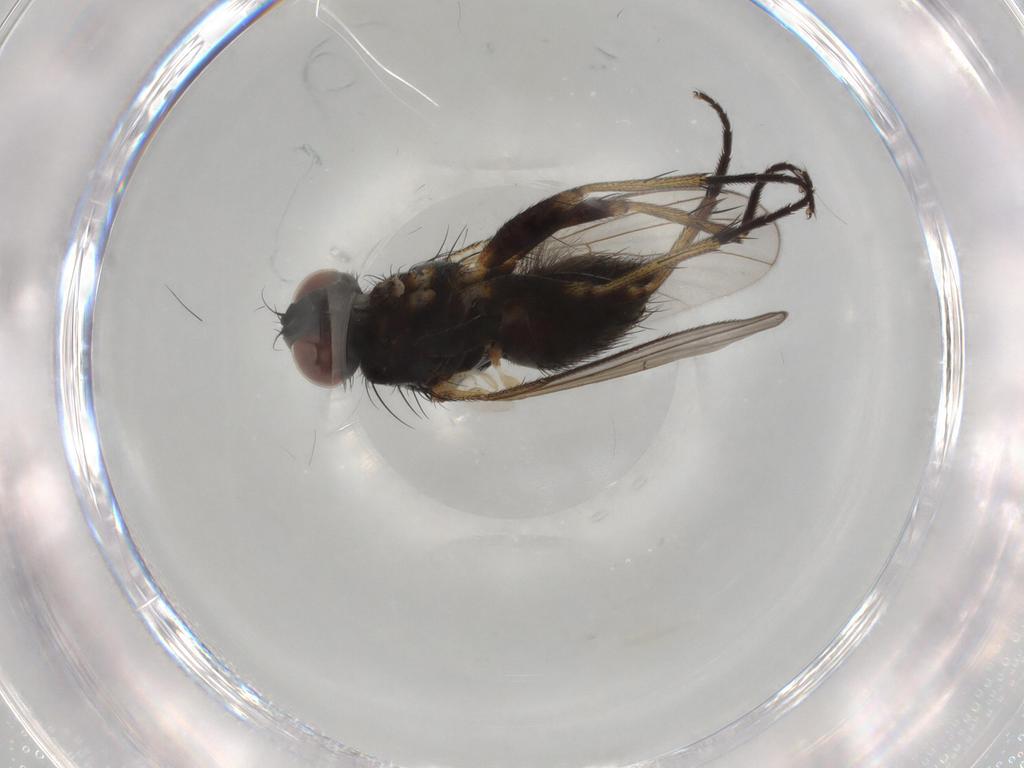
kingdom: Animalia
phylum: Arthropoda
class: Insecta
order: Diptera
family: Muscidae
